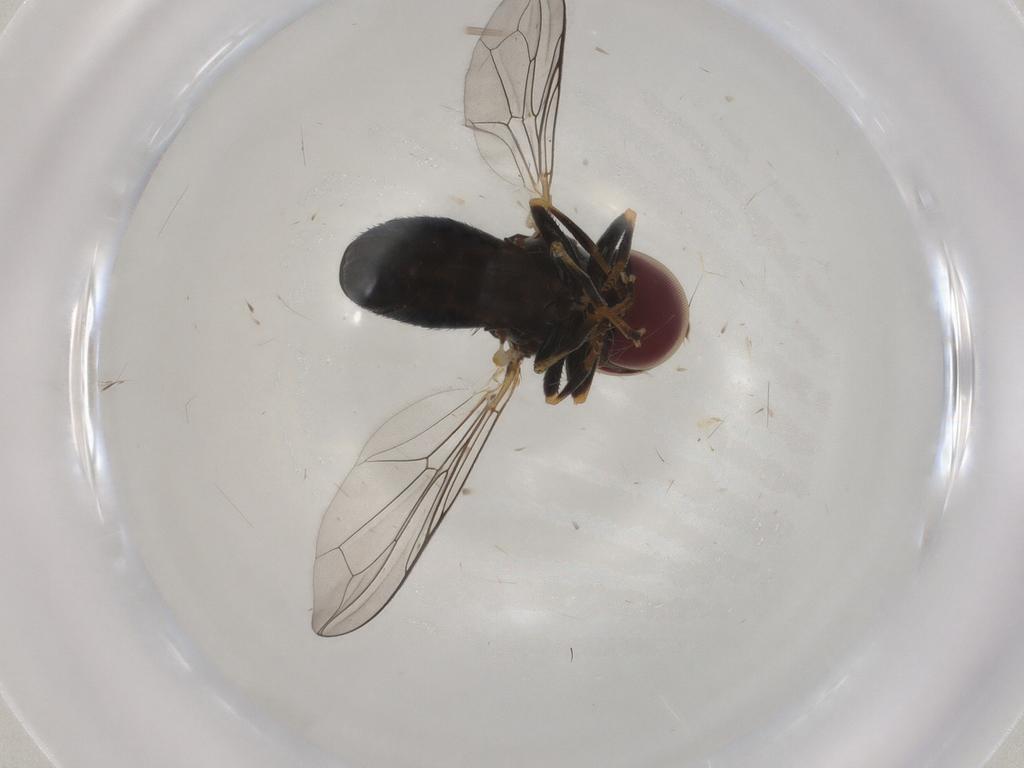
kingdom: Animalia
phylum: Arthropoda
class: Insecta
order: Diptera
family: Pipunculidae
